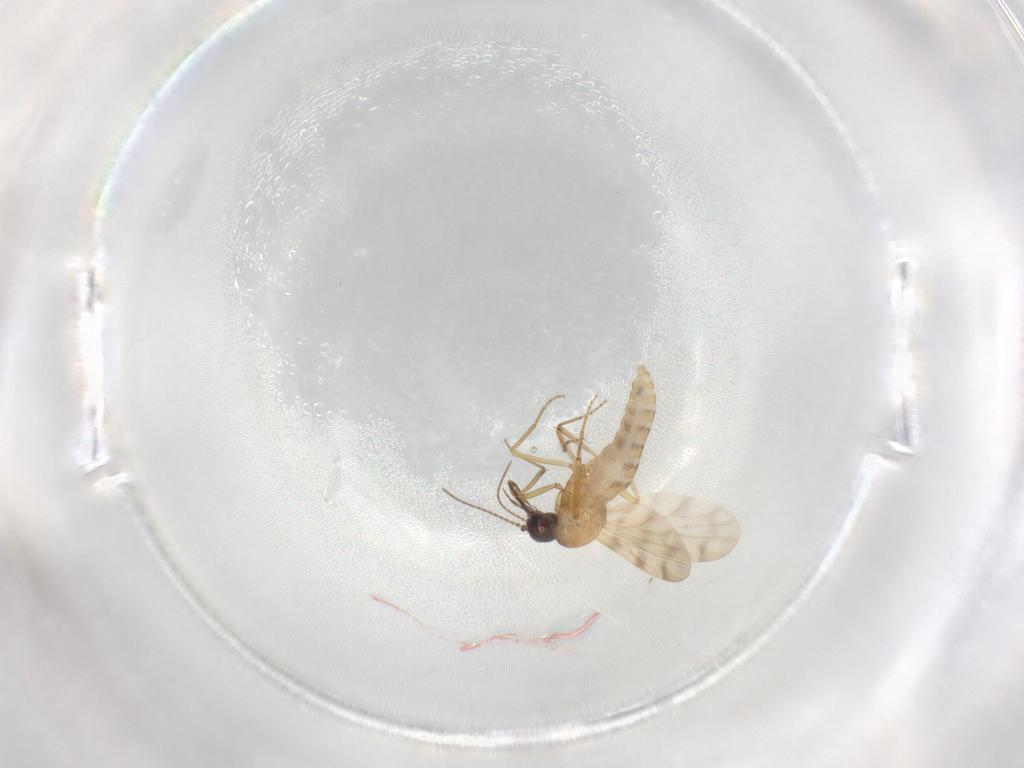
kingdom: Animalia
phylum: Arthropoda
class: Insecta
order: Diptera
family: Ceratopogonidae
